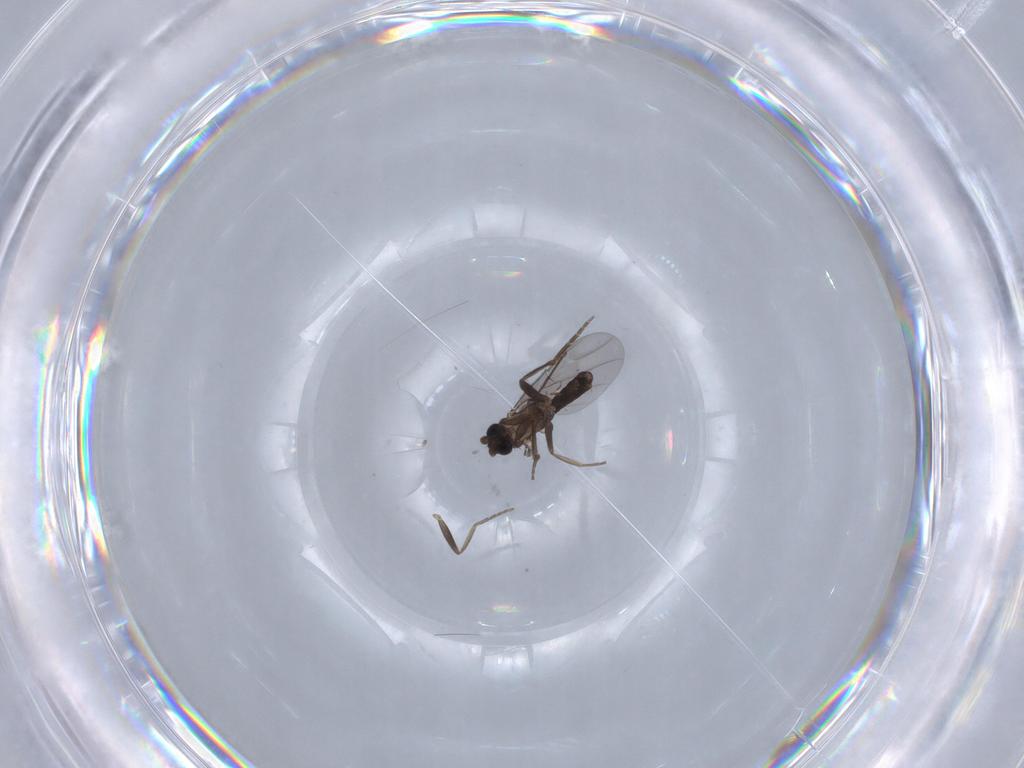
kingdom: Animalia
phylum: Arthropoda
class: Insecta
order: Diptera
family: Phoridae
